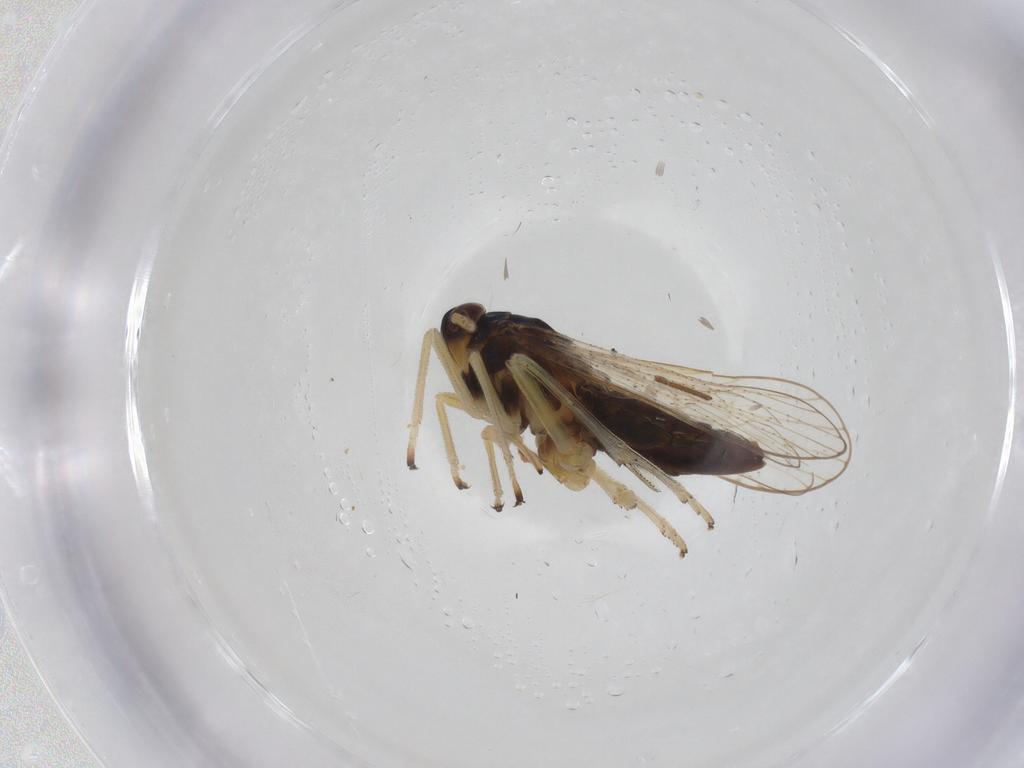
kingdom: Animalia
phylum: Arthropoda
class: Insecta
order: Hemiptera
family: Delphacidae
